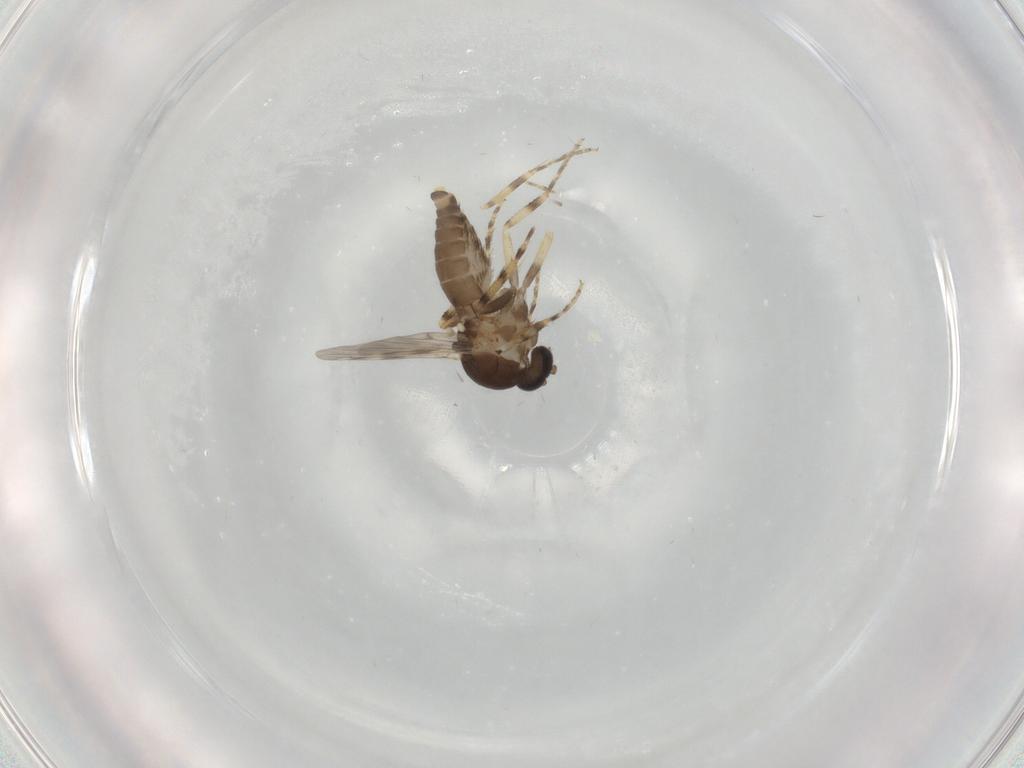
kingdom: Animalia
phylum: Arthropoda
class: Insecta
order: Diptera
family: Ceratopogonidae
